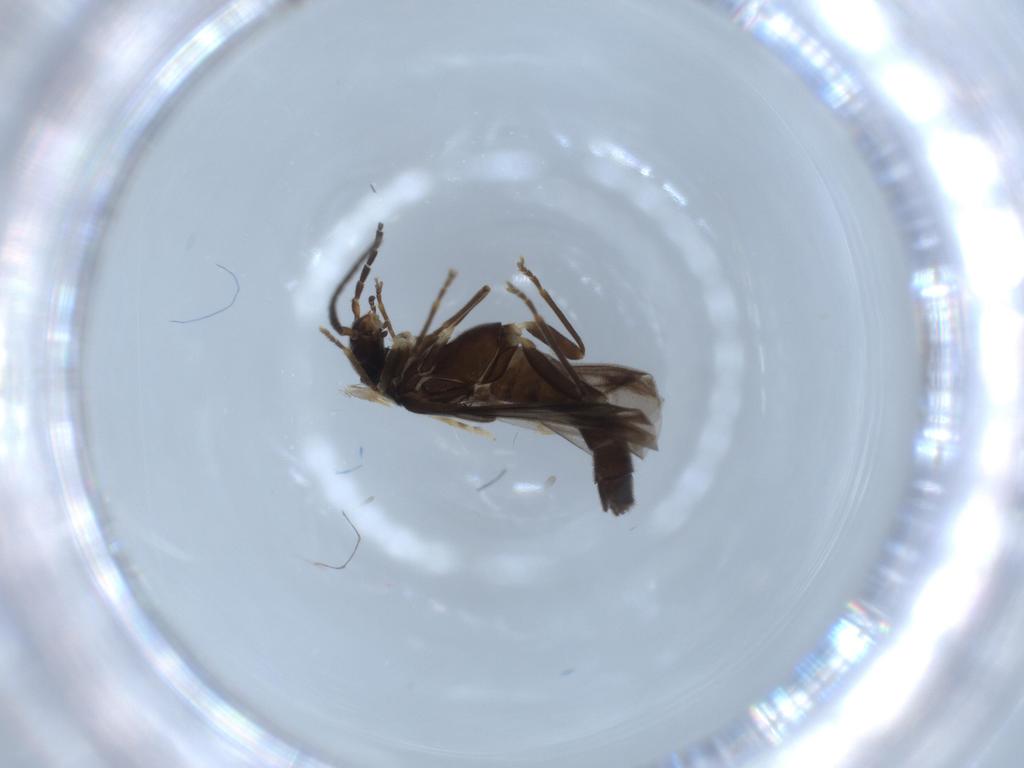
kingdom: Animalia
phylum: Arthropoda
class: Insecta
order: Coleoptera
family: Cantharidae
